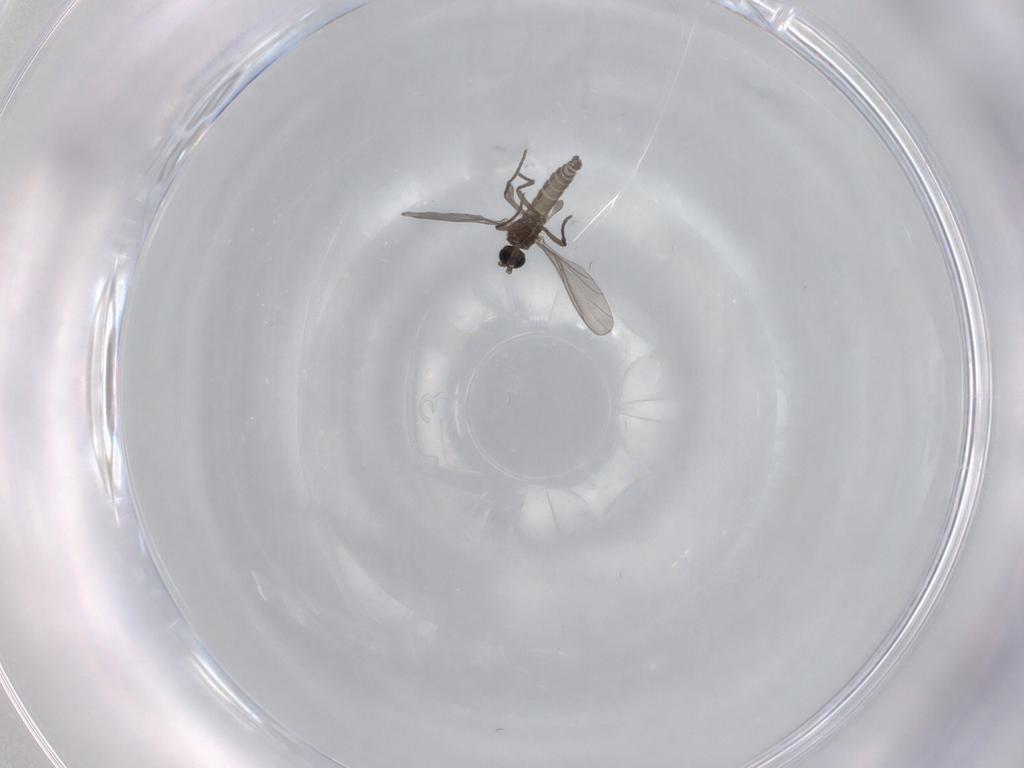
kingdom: Animalia
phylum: Arthropoda
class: Insecta
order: Diptera
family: Sciaridae
